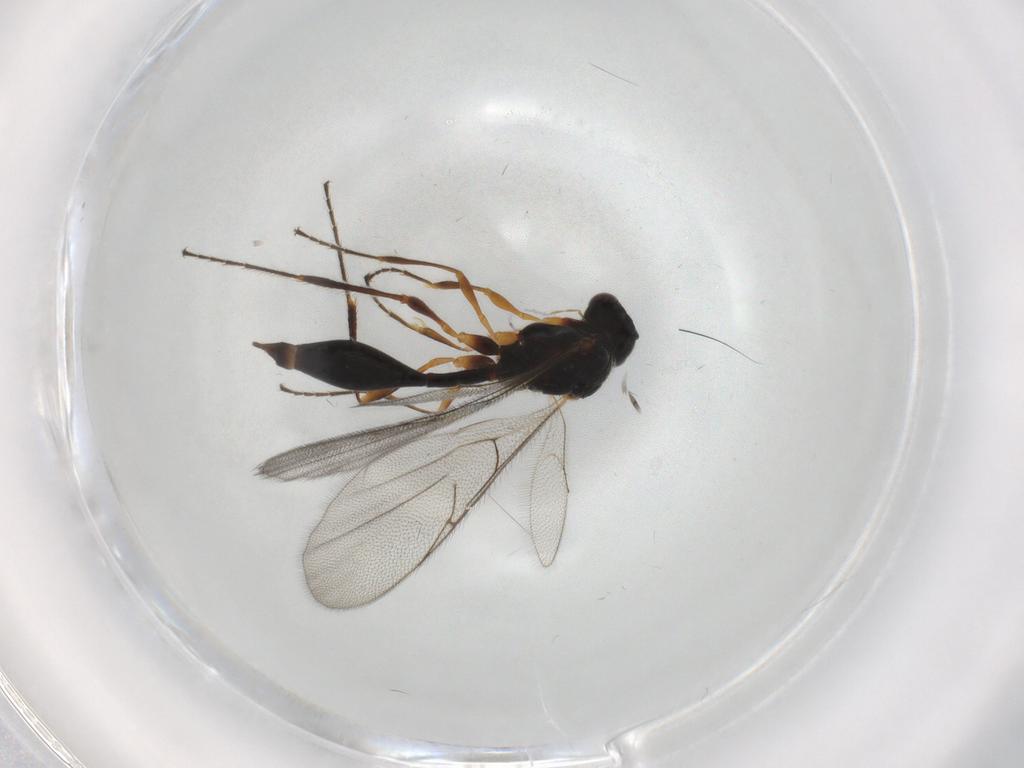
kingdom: Animalia
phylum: Arthropoda
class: Insecta
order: Hymenoptera
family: Diapriidae
